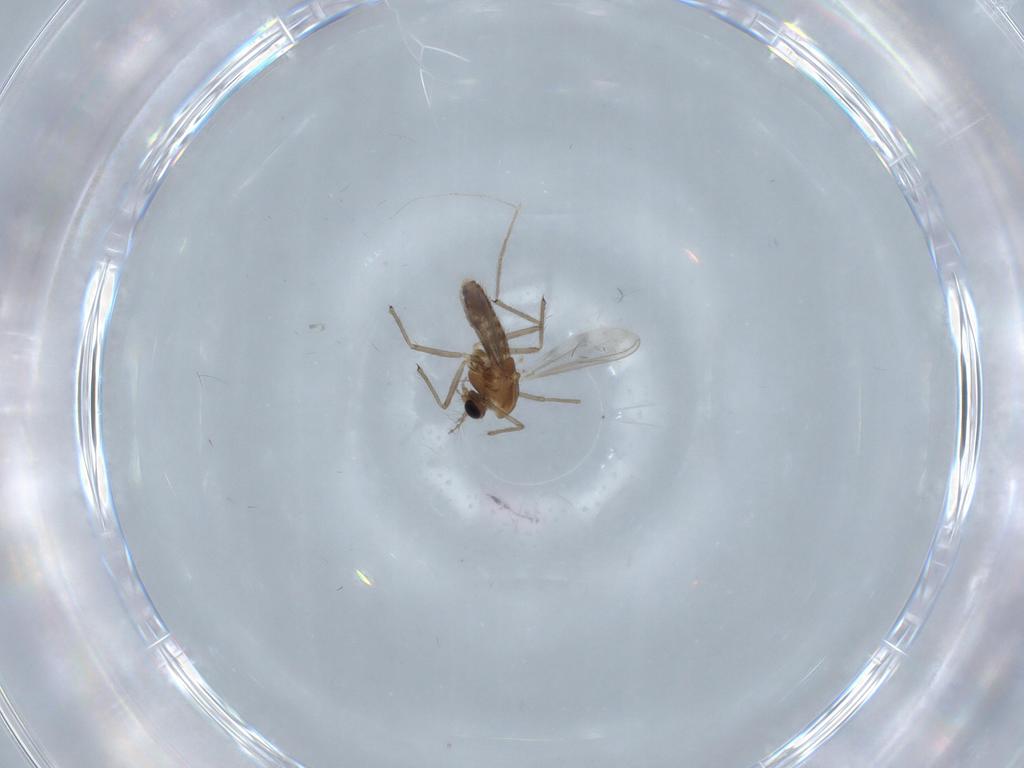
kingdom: Animalia
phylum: Arthropoda
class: Insecta
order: Diptera
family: Chironomidae
